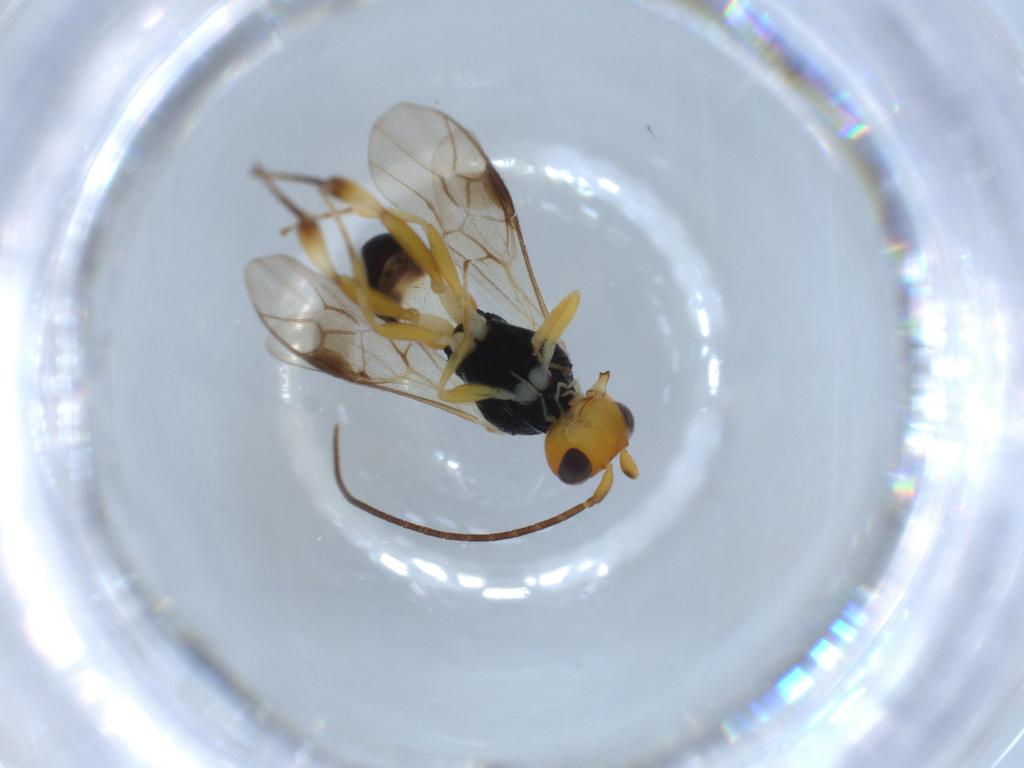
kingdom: Animalia
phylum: Arthropoda
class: Insecta
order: Hymenoptera
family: Braconidae
